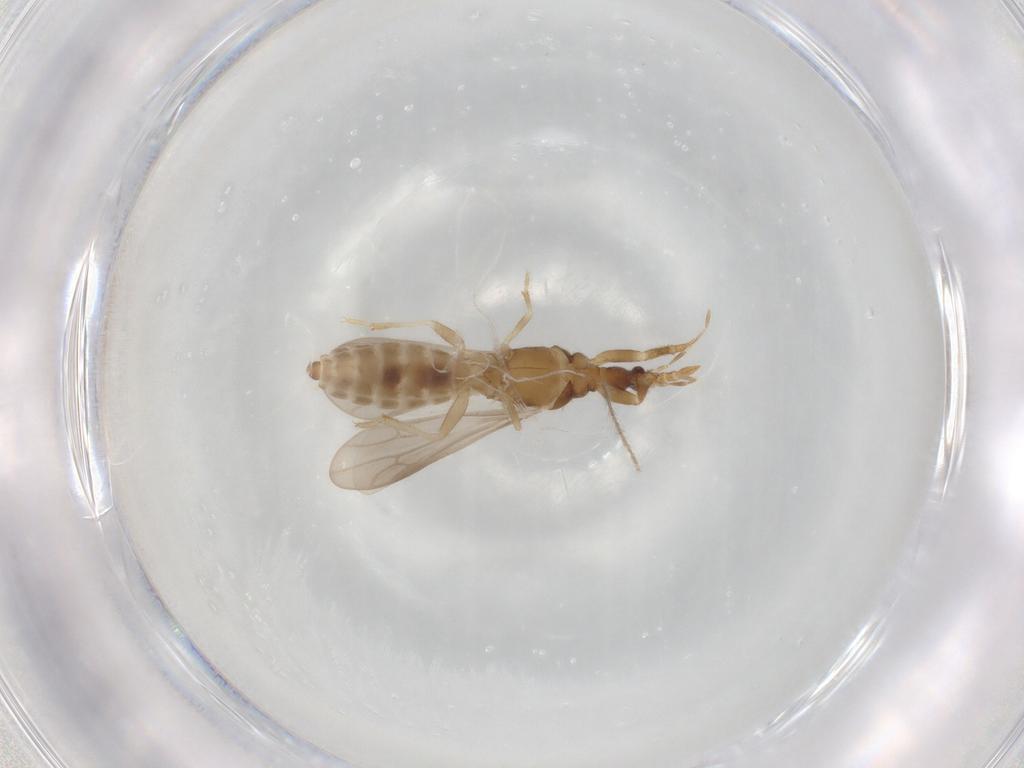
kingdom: Animalia
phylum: Arthropoda
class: Insecta
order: Hemiptera
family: Enicocephalidae
